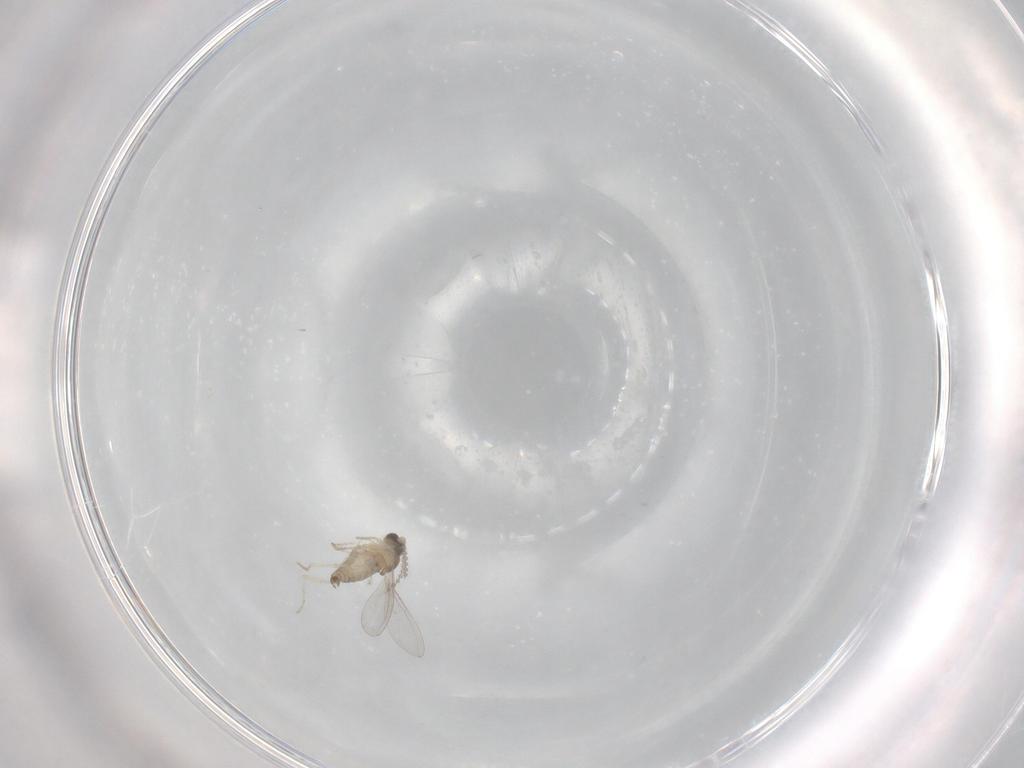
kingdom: Animalia
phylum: Arthropoda
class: Insecta
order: Diptera
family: Cecidomyiidae
